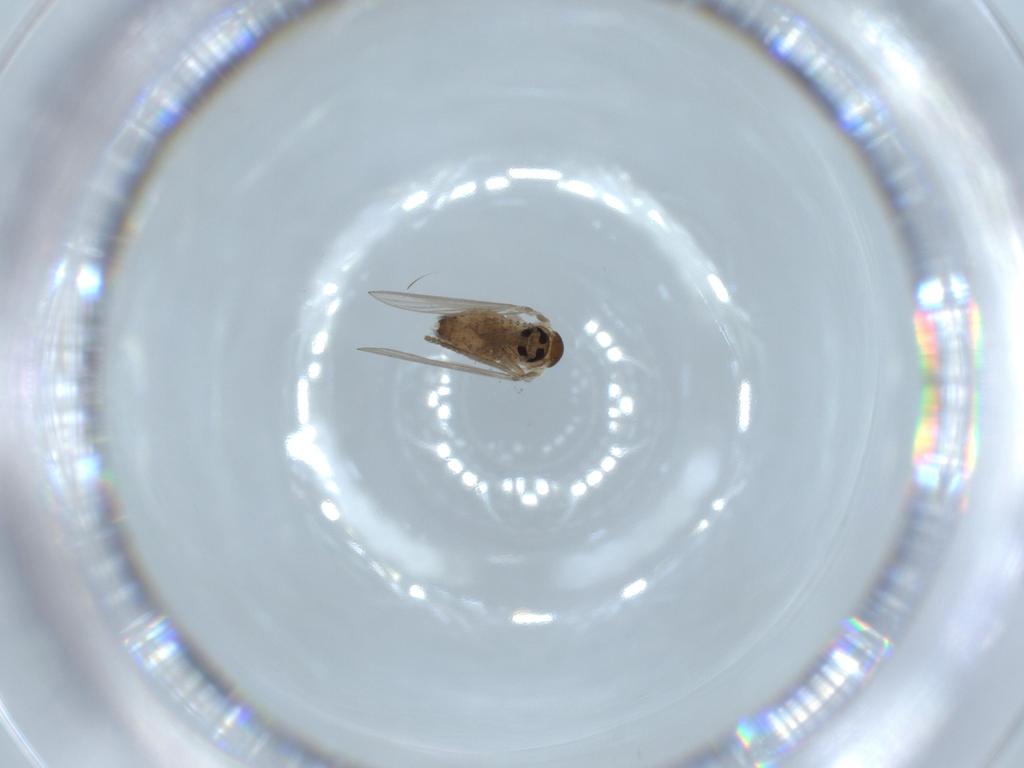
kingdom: Animalia
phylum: Arthropoda
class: Insecta
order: Diptera
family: Psychodidae
